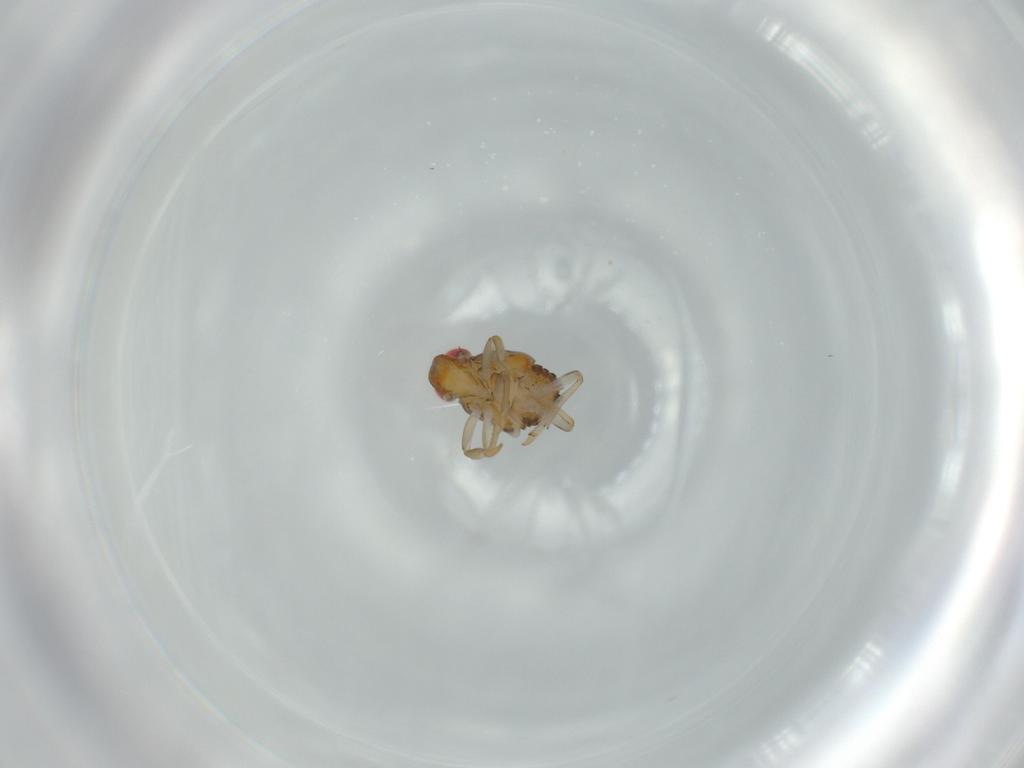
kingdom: Animalia
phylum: Arthropoda
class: Insecta
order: Hemiptera
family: Issidae
